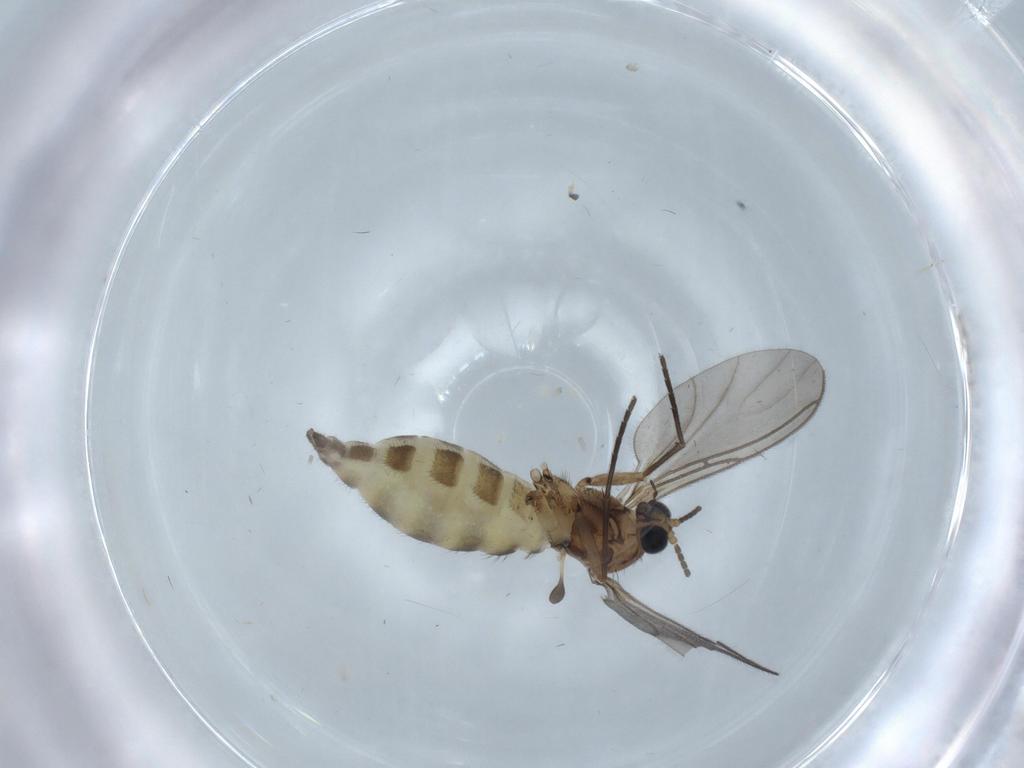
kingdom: Animalia
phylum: Arthropoda
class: Insecta
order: Diptera
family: Sciaridae
